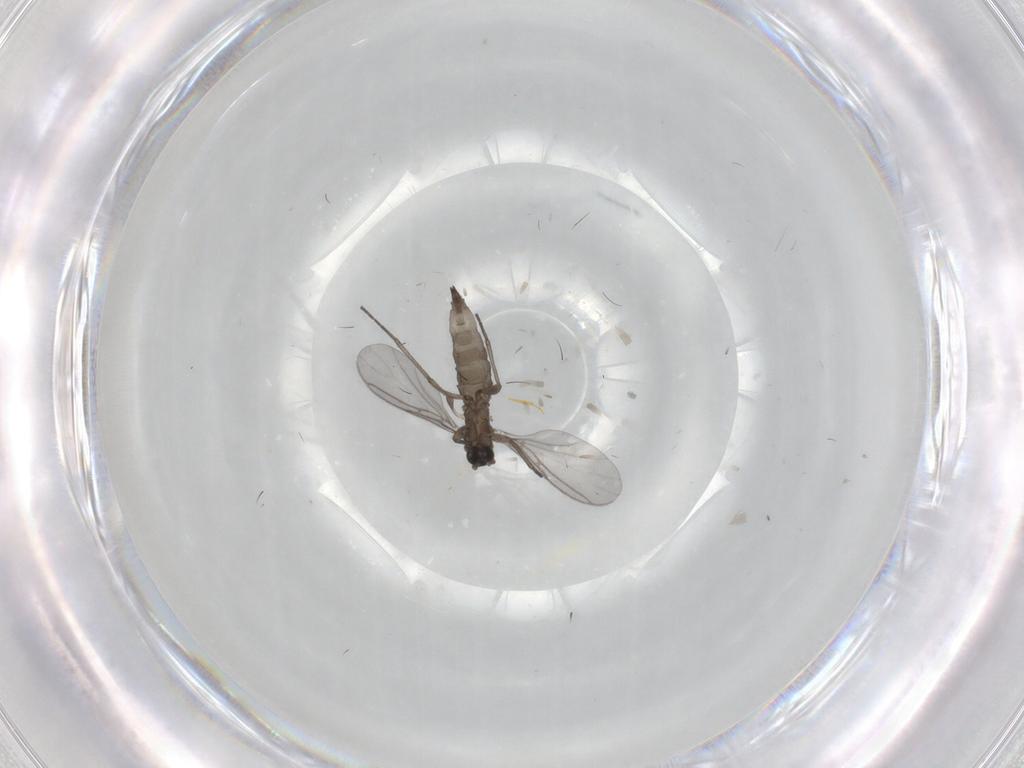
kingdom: Animalia
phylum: Arthropoda
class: Insecta
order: Diptera
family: Sciaridae
